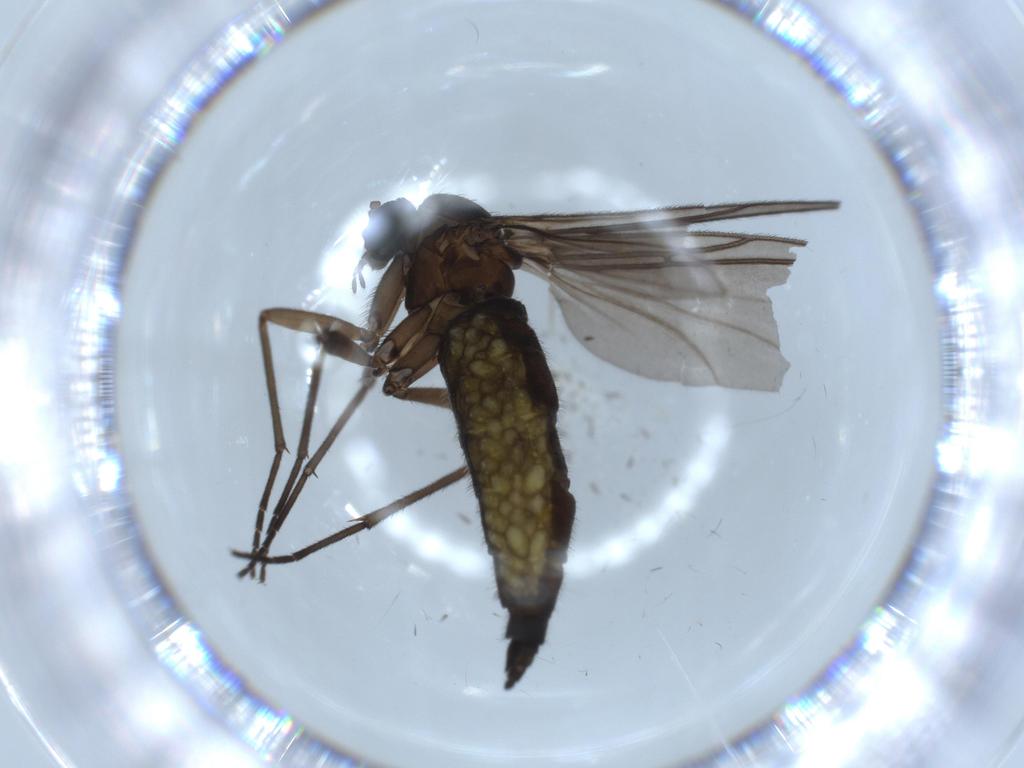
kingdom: Animalia
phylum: Arthropoda
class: Insecta
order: Diptera
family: Sciaridae
